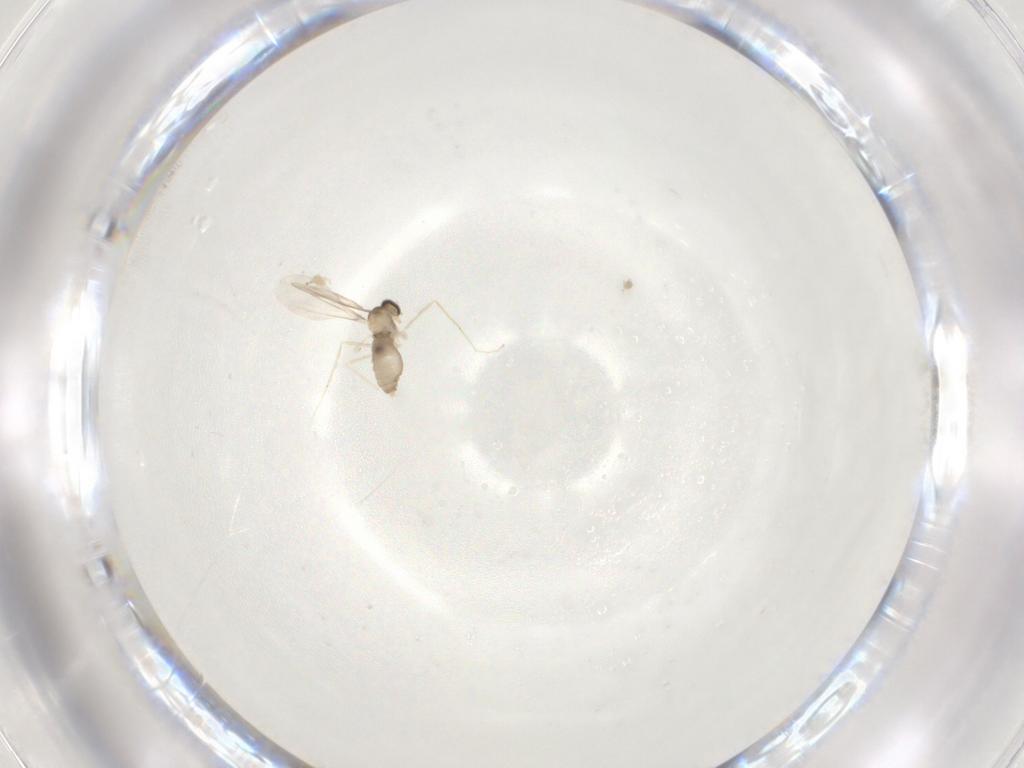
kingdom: Animalia
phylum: Arthropoda
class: Insecta
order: Diptera
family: Cecidomyiidae
